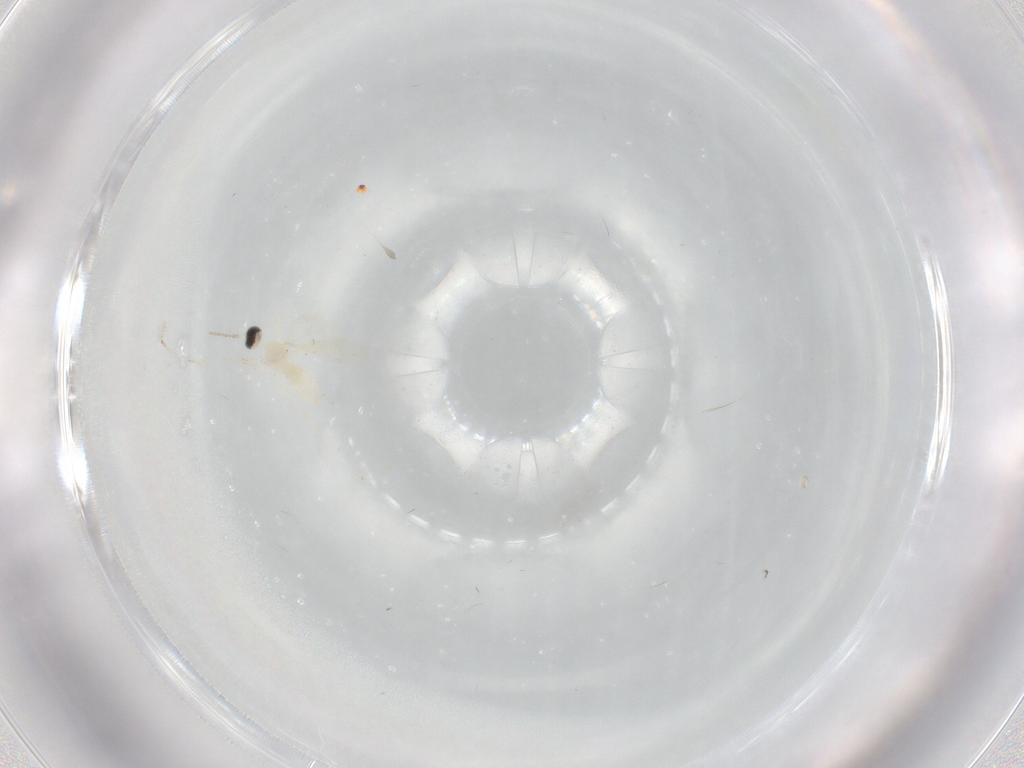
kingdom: Animalia
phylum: Arthropoda
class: Insecta
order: Diptera
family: Cecidomyiidae
